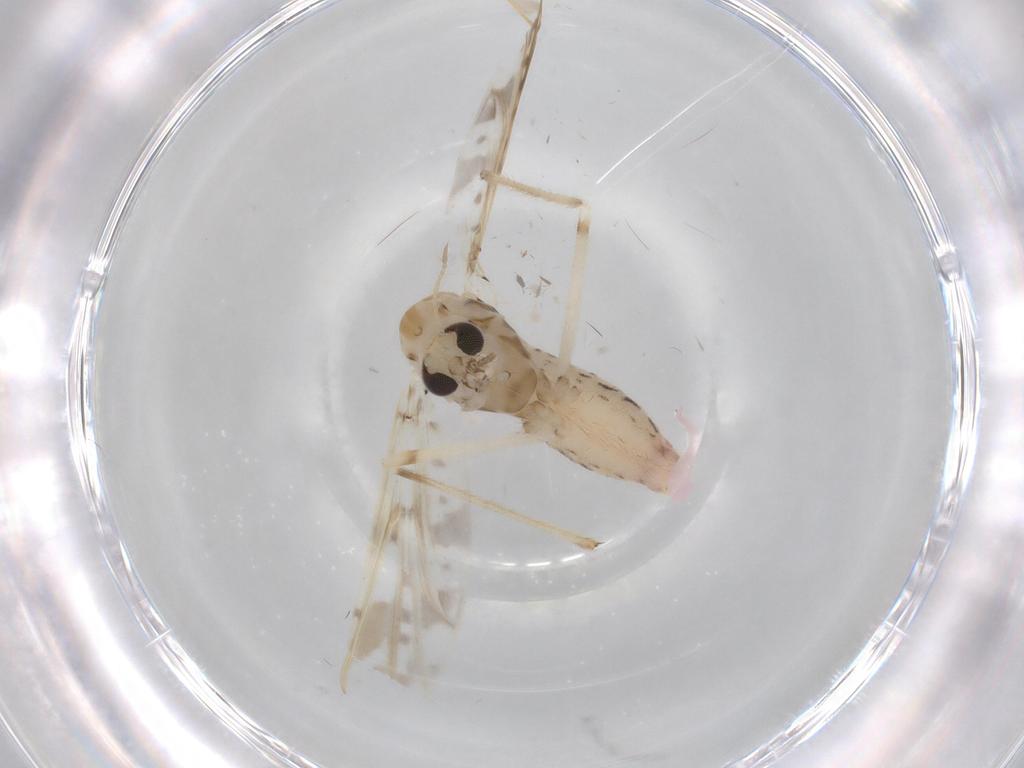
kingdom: Animalia
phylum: Arthropoda
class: Insecta
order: Diptera
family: Chironomidae
